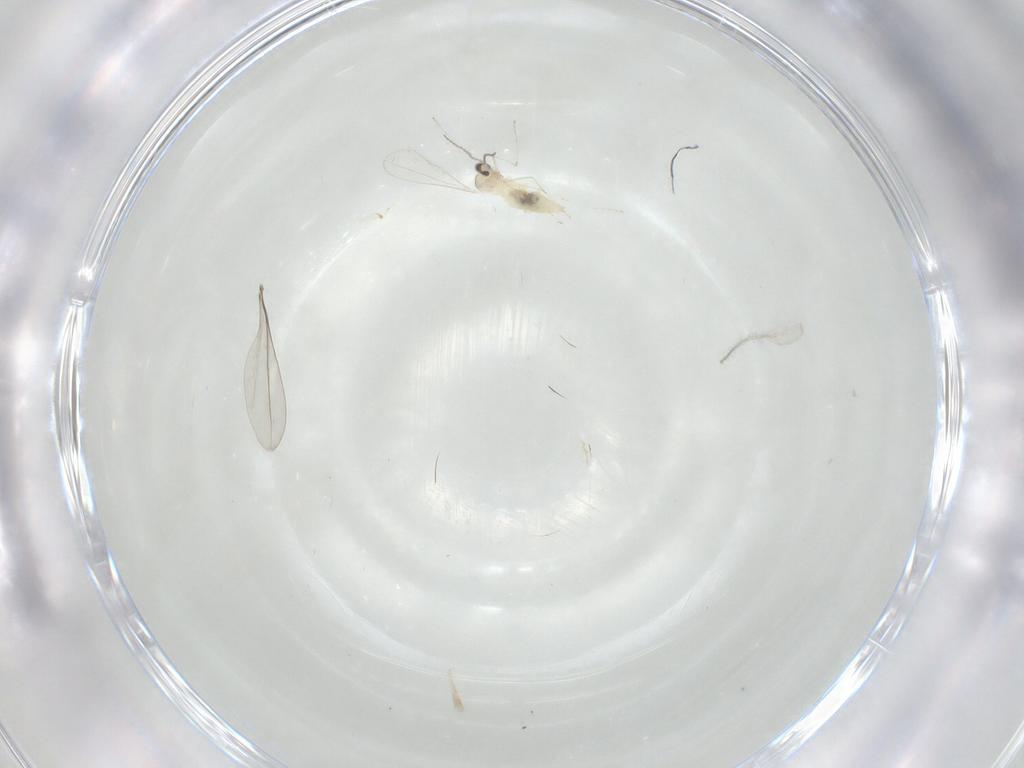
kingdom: Animalia
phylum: Arthropoda
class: Insecta
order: Diptera
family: Cecidomyiidae
